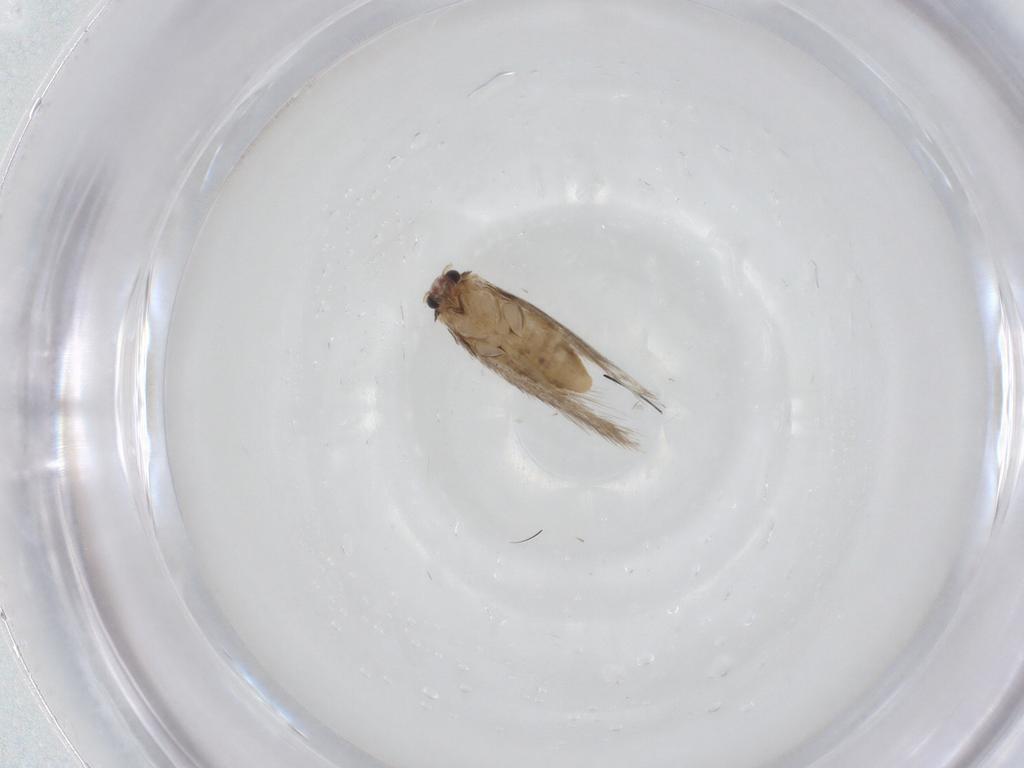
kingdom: Animalia
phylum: Arthropoda
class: Insecta
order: Lepidoptera
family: Nepticulidae
